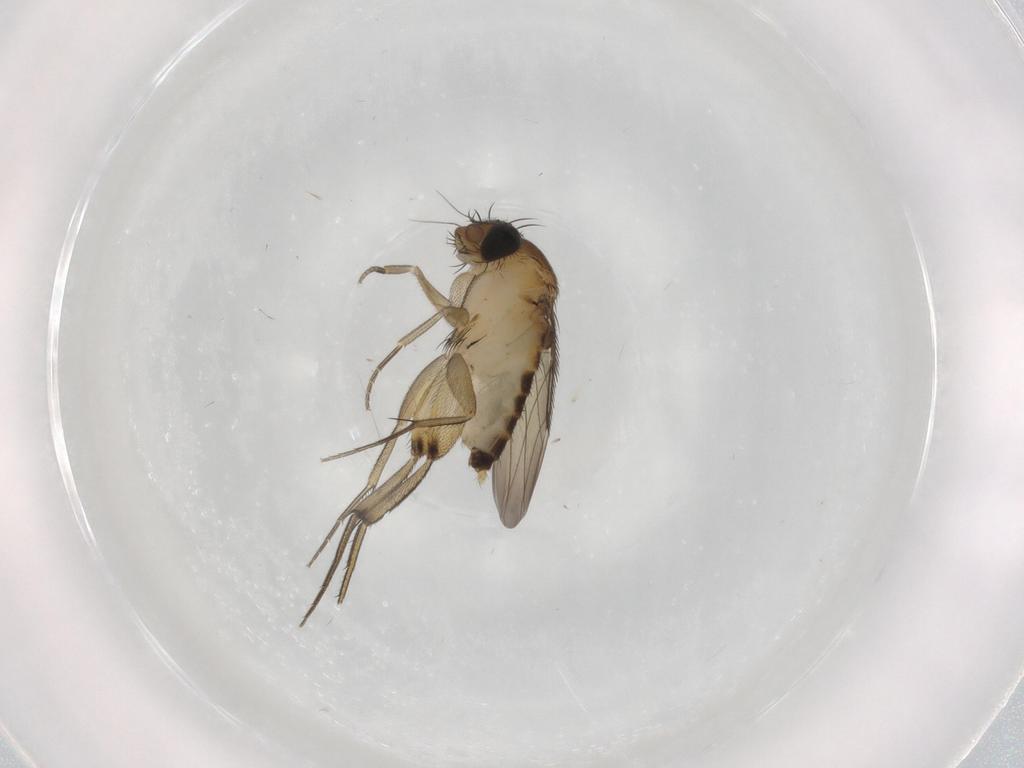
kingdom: Animalia
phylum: Arthropoda
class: Insecta
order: Diptera
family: Phoridae
